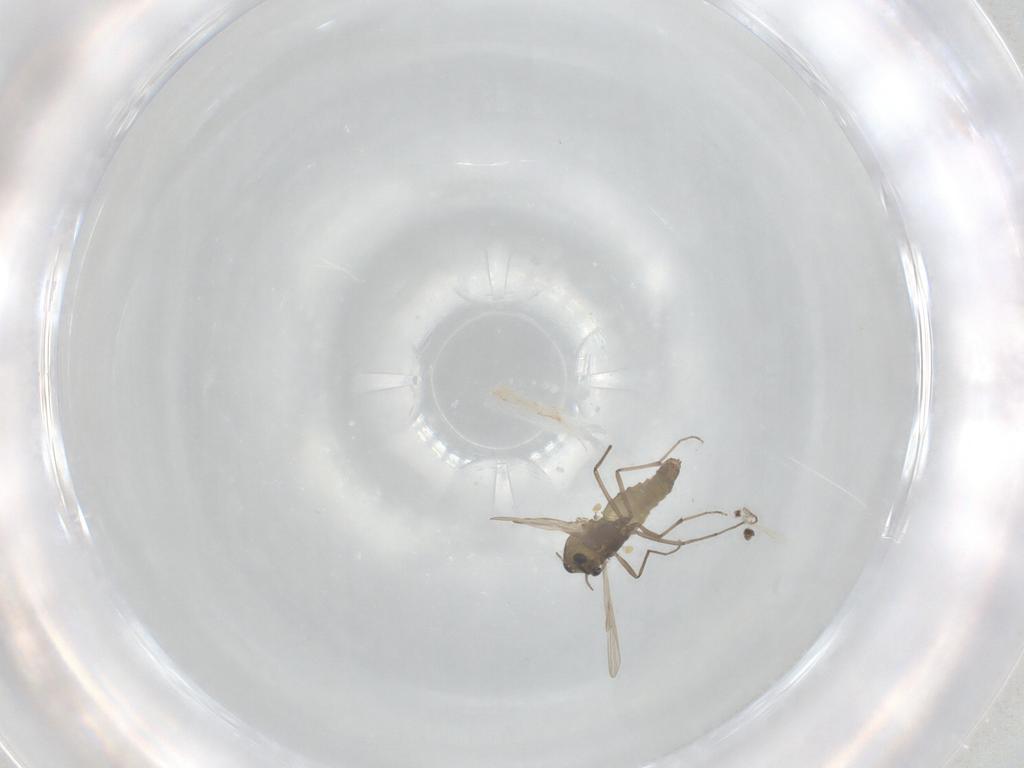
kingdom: Animalia
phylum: Arthropoda
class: Insecta
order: Diptera
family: Chironomidae
